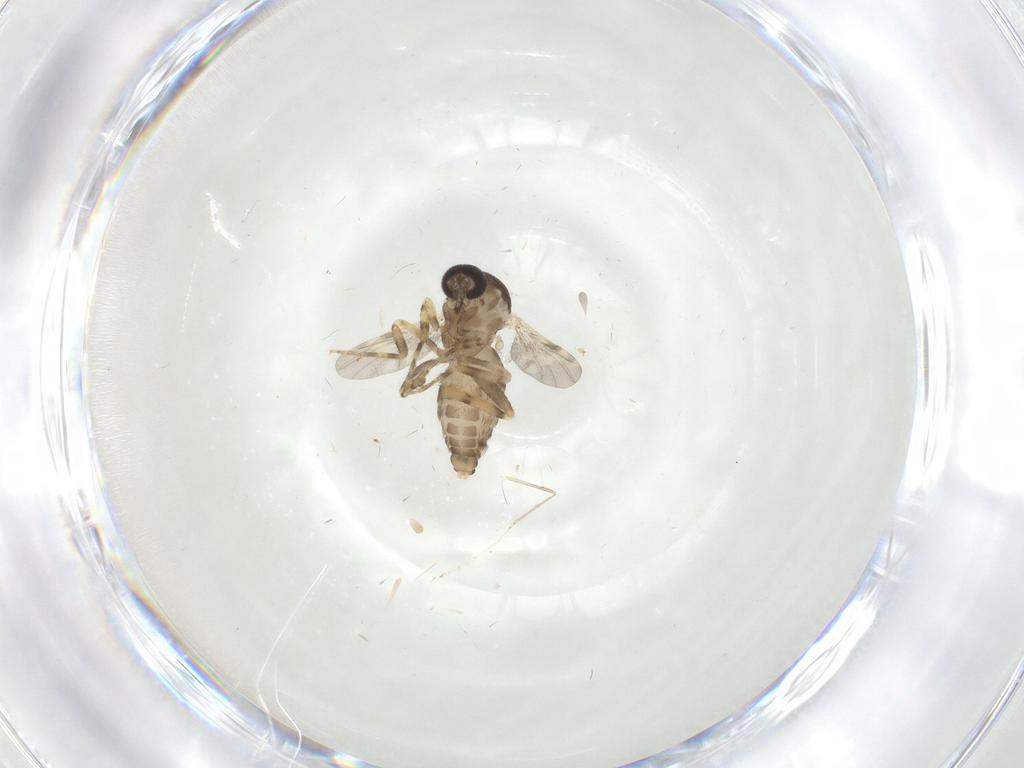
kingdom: Animalia
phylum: Arthropoda
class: Insecta
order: Diptera
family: Ceratopogonidae
